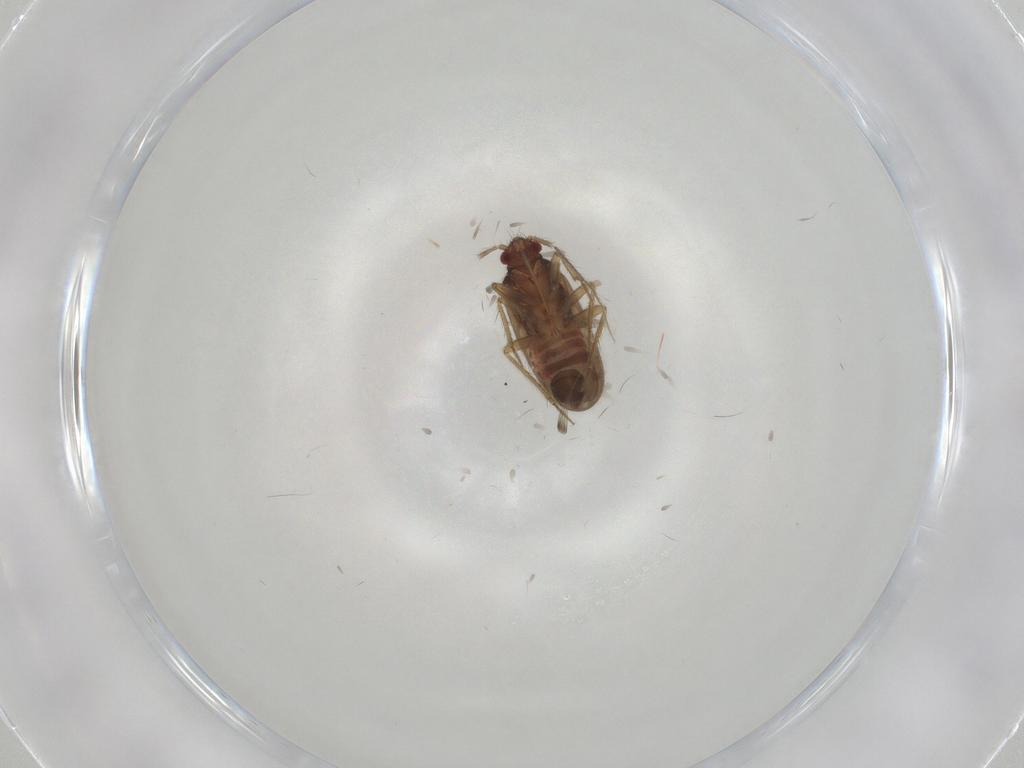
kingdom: Animalia
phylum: Arthropoda
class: Insecta
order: Hemiptera
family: Ceratocombidae
